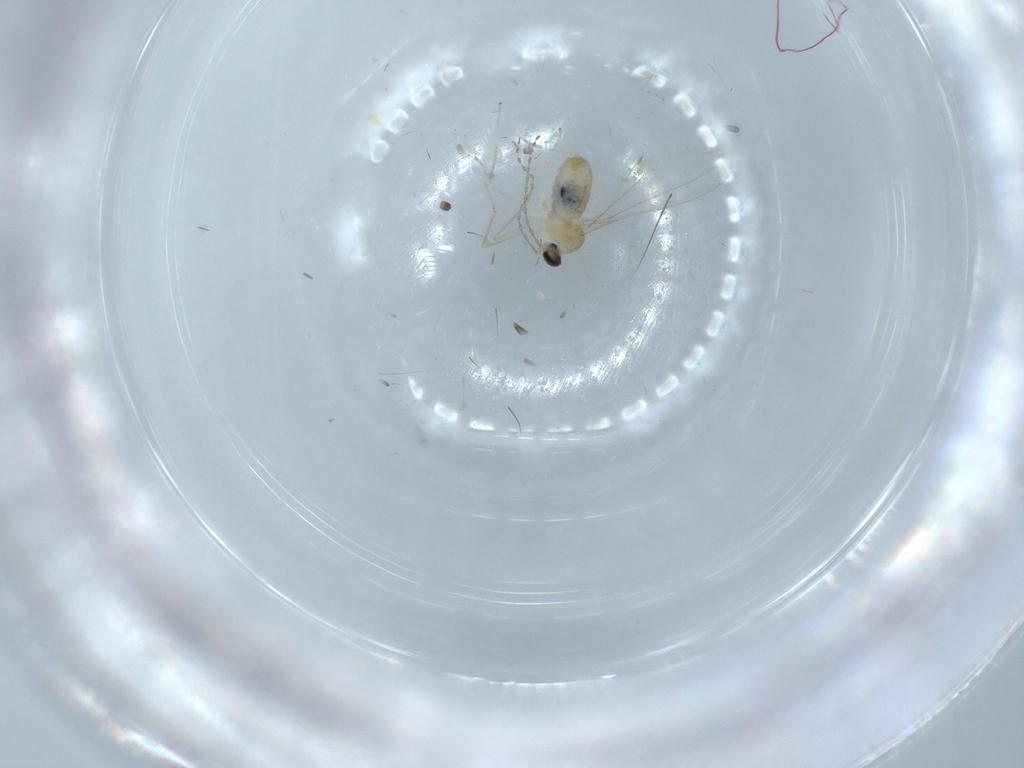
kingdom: Animalia
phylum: Arthropoda
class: Insecta
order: Diptera
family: Cecidomyiidae
